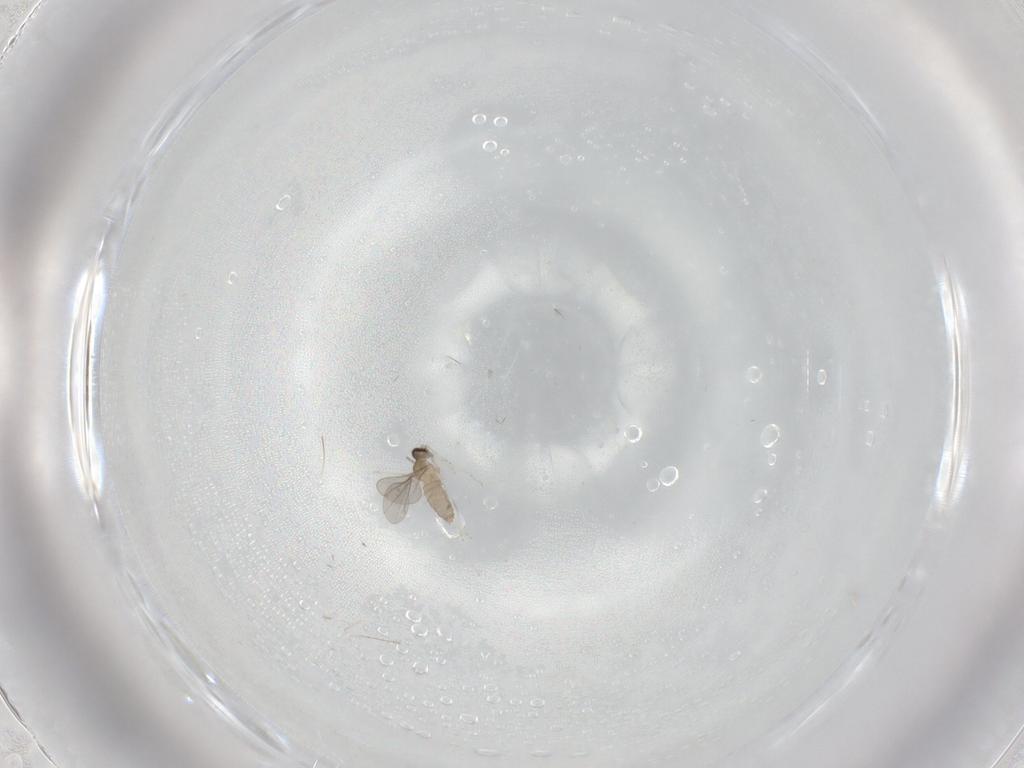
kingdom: Animalia
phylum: Arthropoda
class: Insecta
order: Diptera
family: Cecidomyiidae
